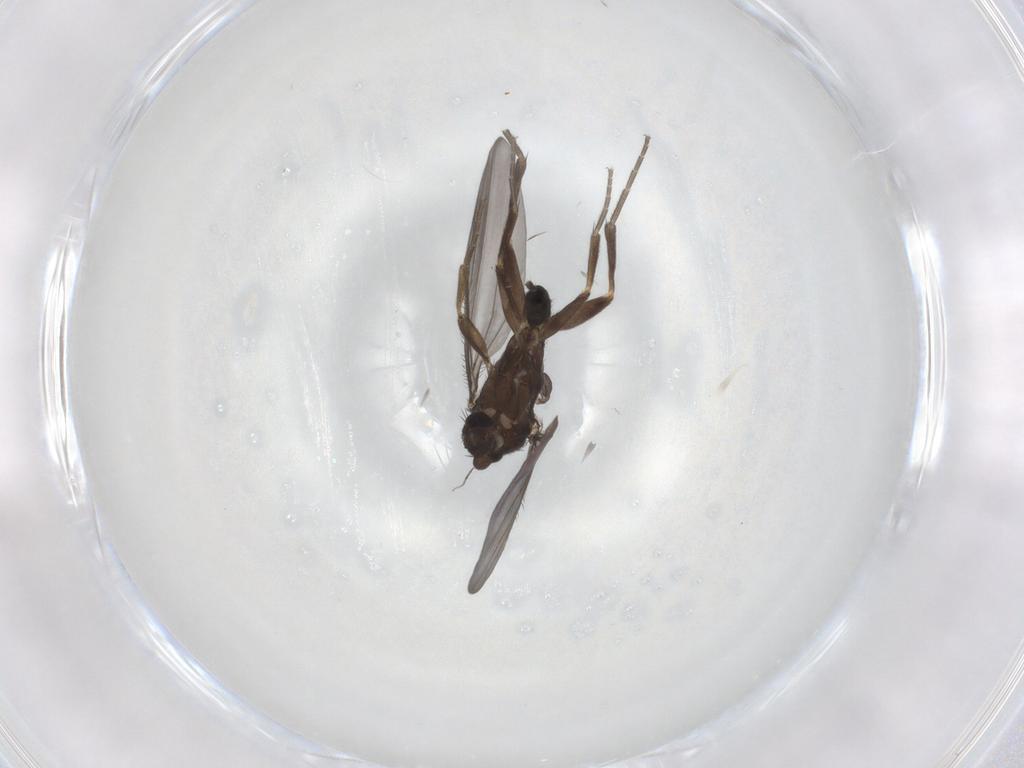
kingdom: Animalia
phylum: Arthropoda
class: Insecta
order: Diptera
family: Phoridae
